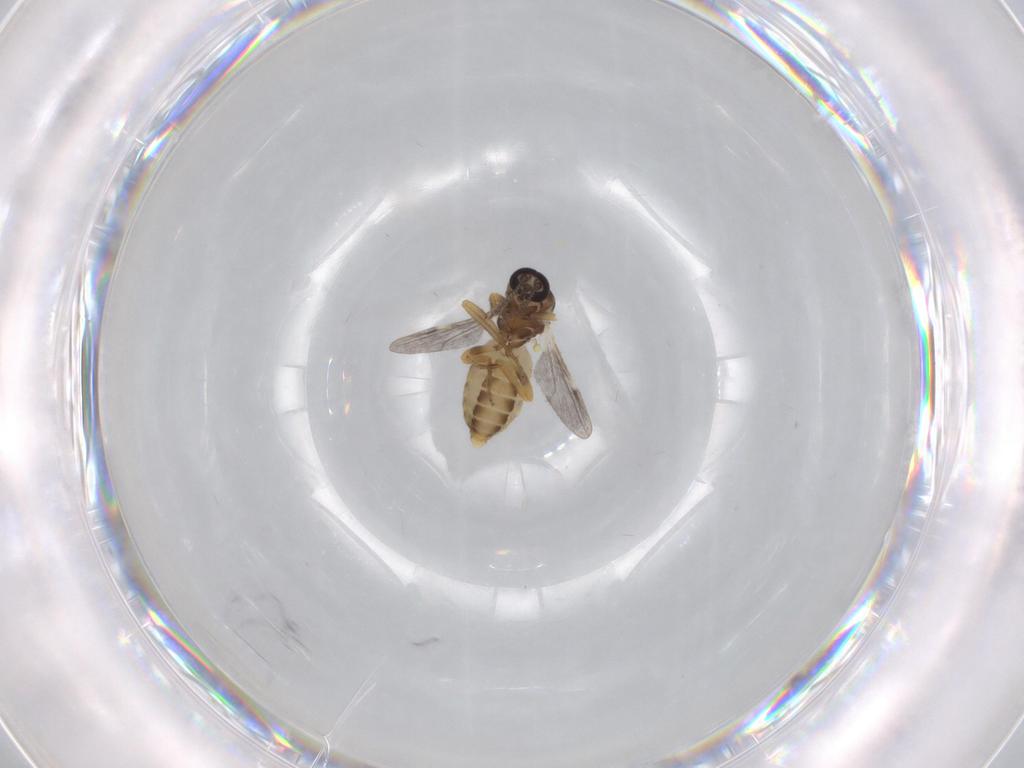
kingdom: Animalia
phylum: Arthropoda
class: Insecta
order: Diptera
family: Ceratopogonidae
